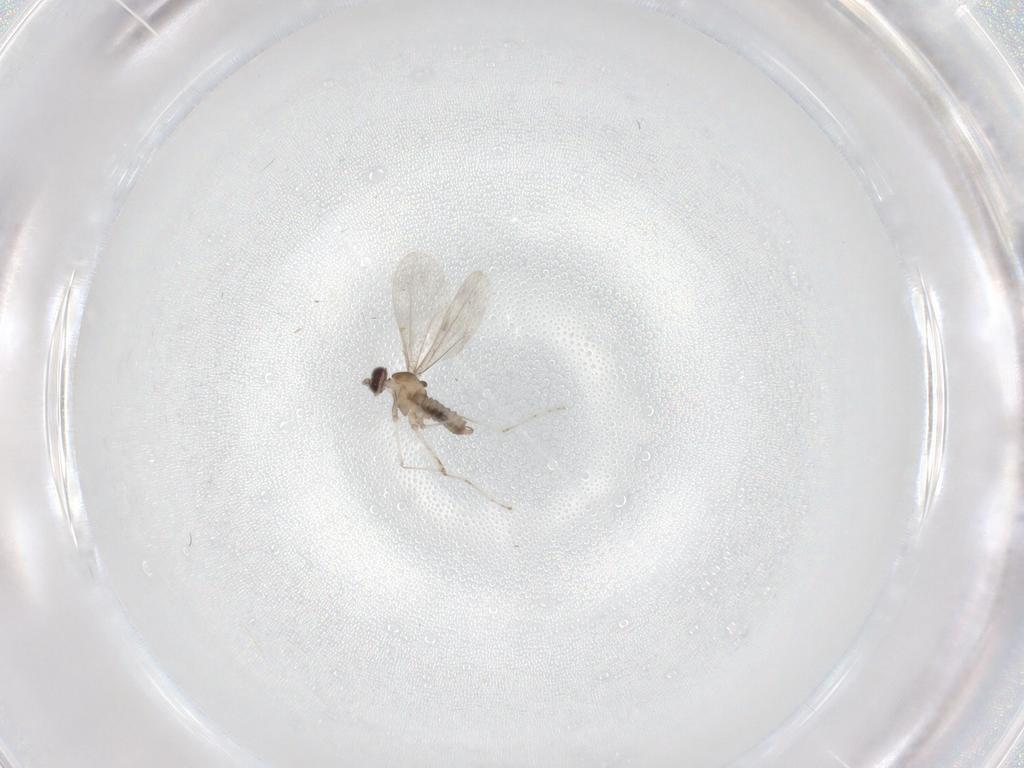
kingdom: Animalia
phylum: Arthropoda
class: Insecta
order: Diptera
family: Cecidomyiidae
